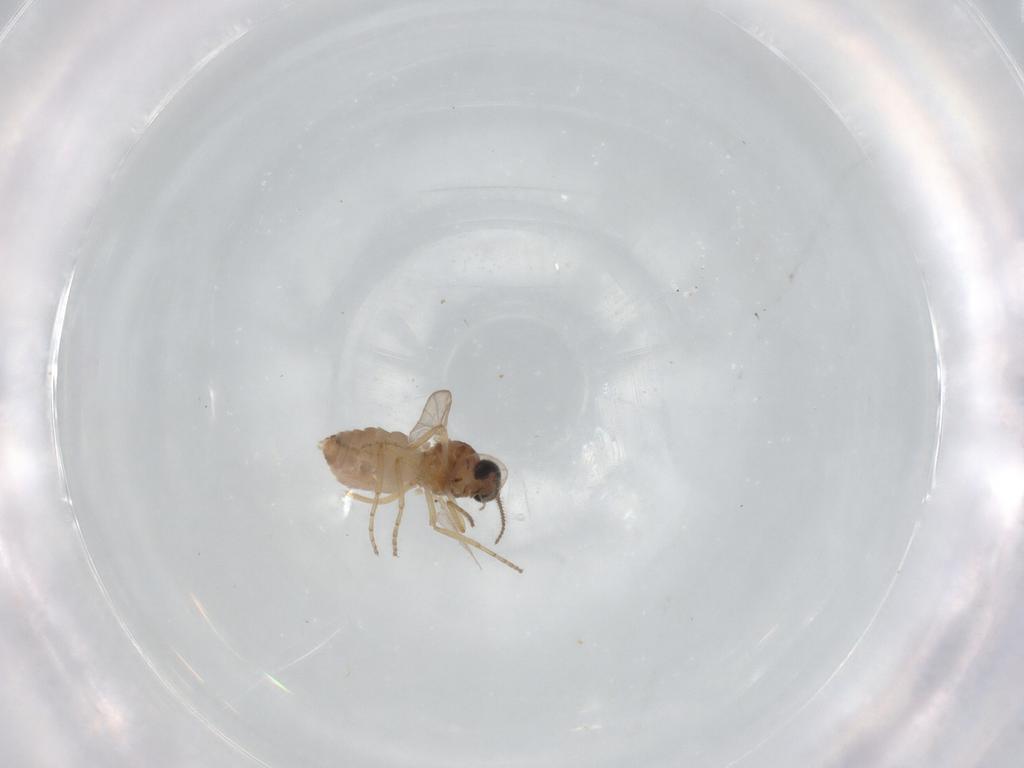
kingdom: Animalia
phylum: Arthropoda
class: Insecta
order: Diptera
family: Ceratopogonidae
